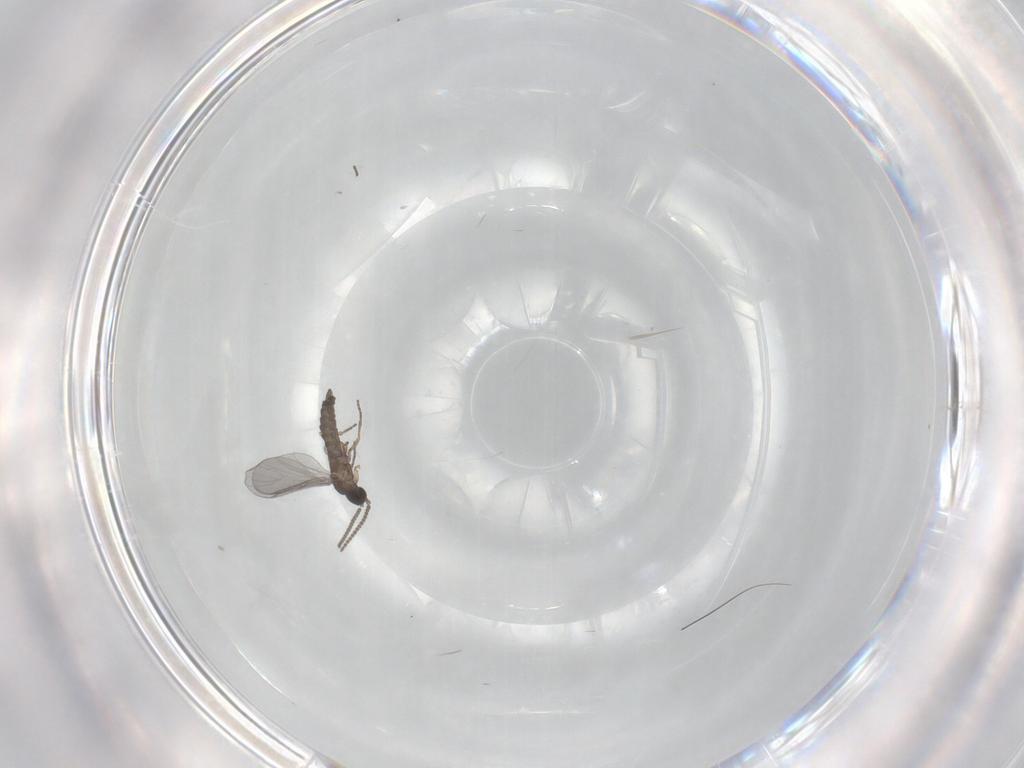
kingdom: Animalia
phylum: Arthropoda
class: Insecta
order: Diptera
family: Sciaridae
